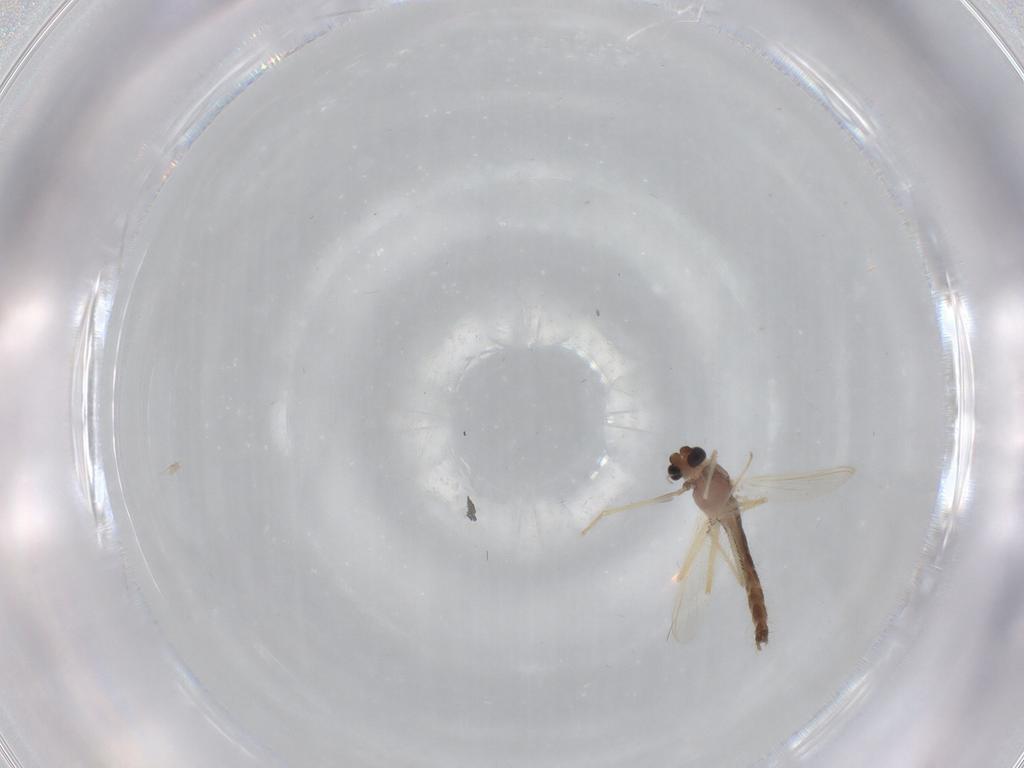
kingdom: Animalia
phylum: Arthropoda
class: Insecta
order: Diptera
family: Chironomidae
